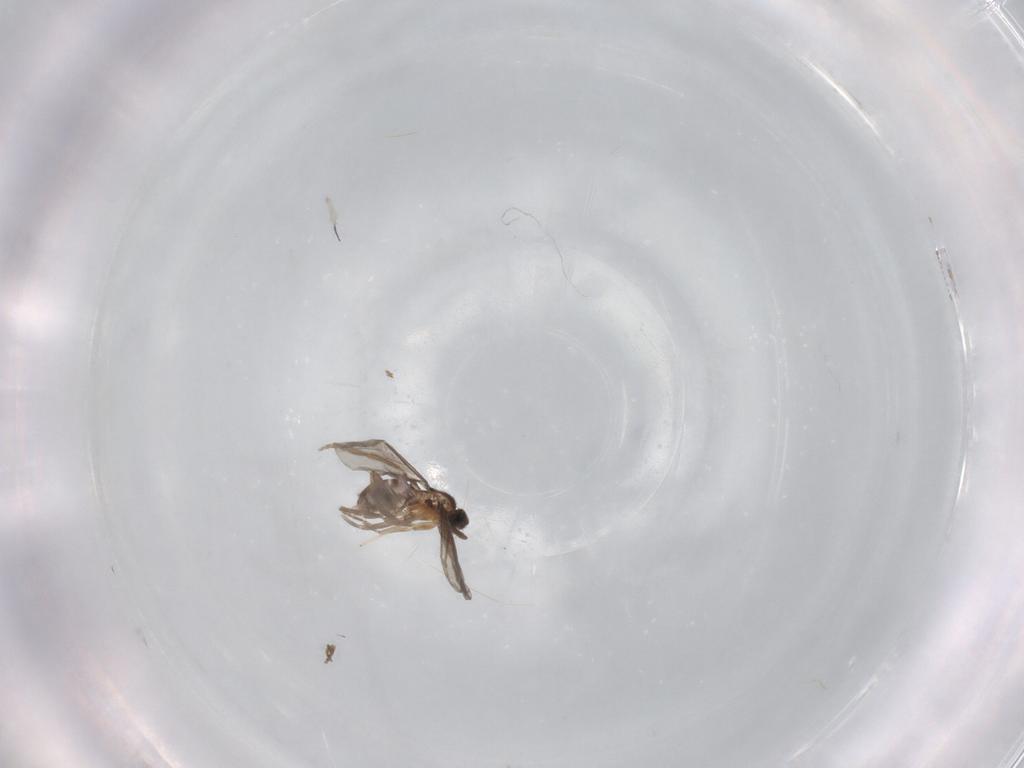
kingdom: Animalia
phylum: Arthropoda
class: Insecta
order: Diptera
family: Psychodidae
